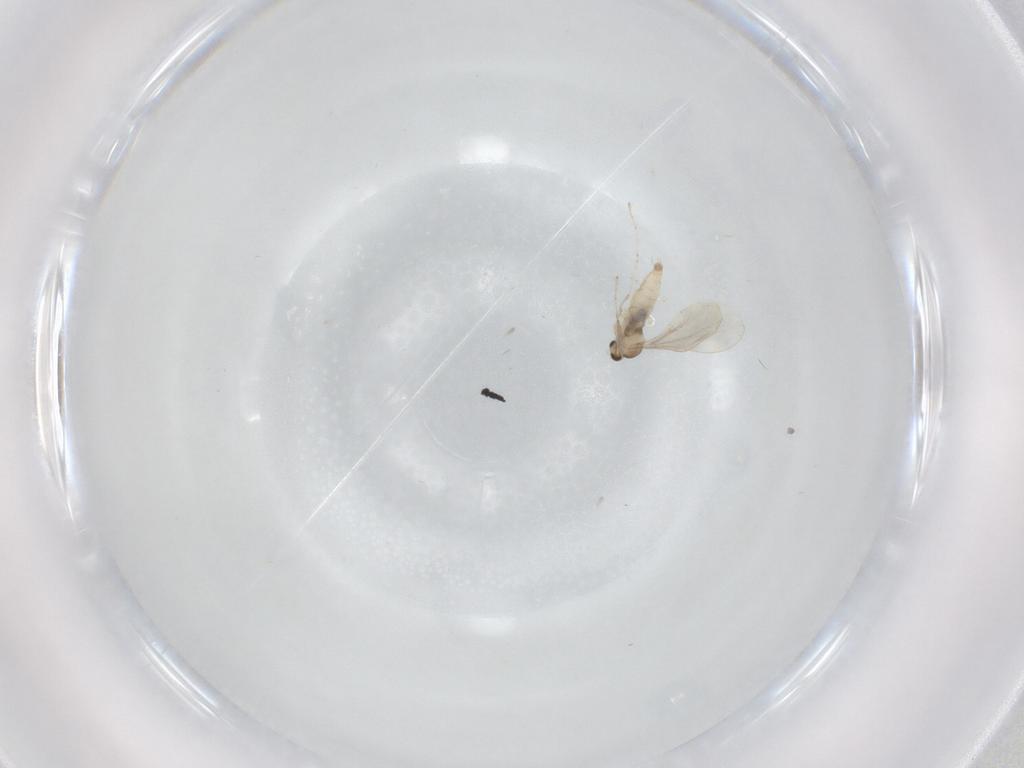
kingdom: Animalia
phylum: Arthropoda
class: Insecta
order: Diptera
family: Cecidomyiidae
